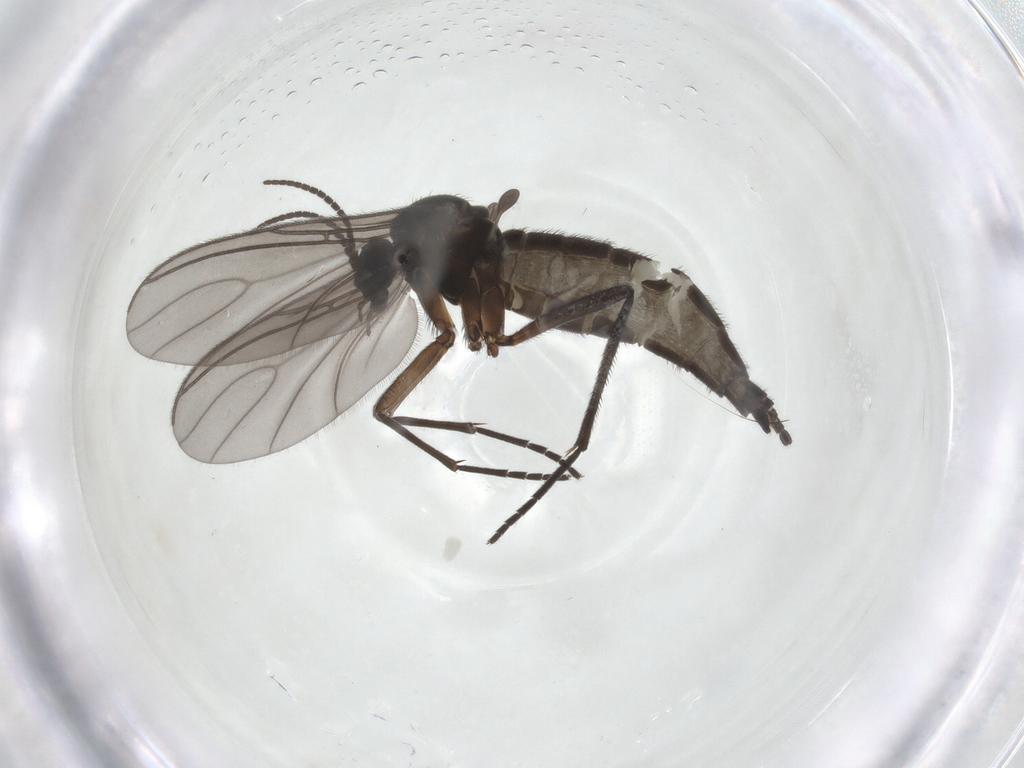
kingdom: Animalia
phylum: Arthropoda
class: Insecta
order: Diptera
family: Sciaridae
